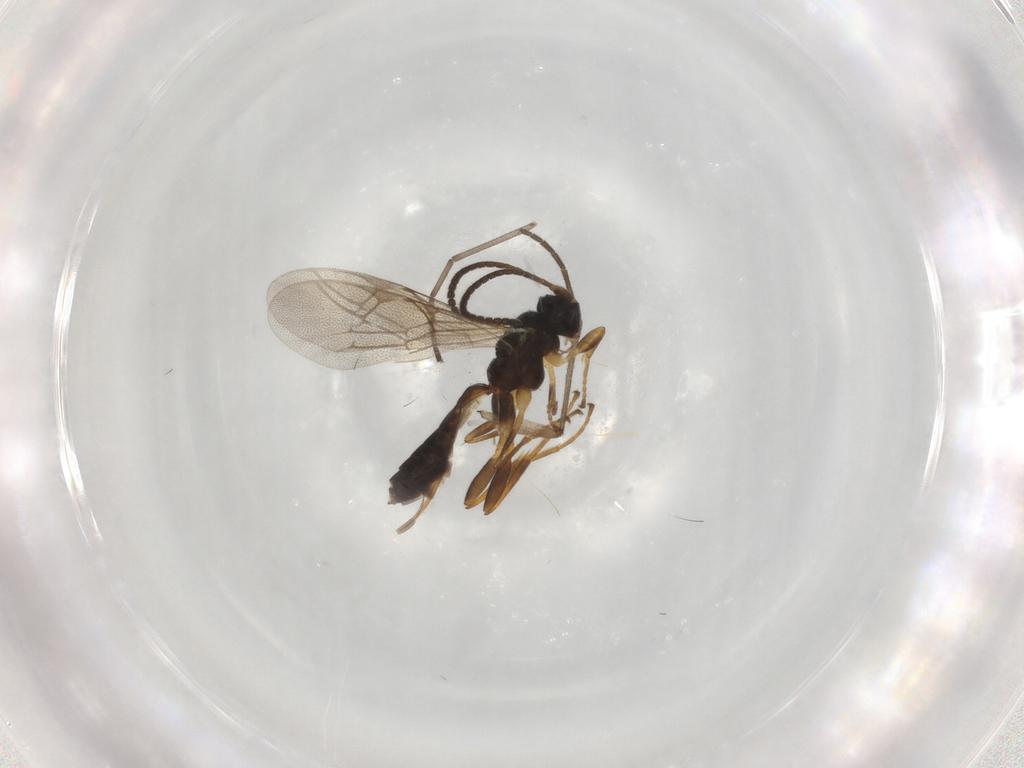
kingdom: Animalia
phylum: Arthropoda
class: Insecta
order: Hymenoptera
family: Ichneumonidae
